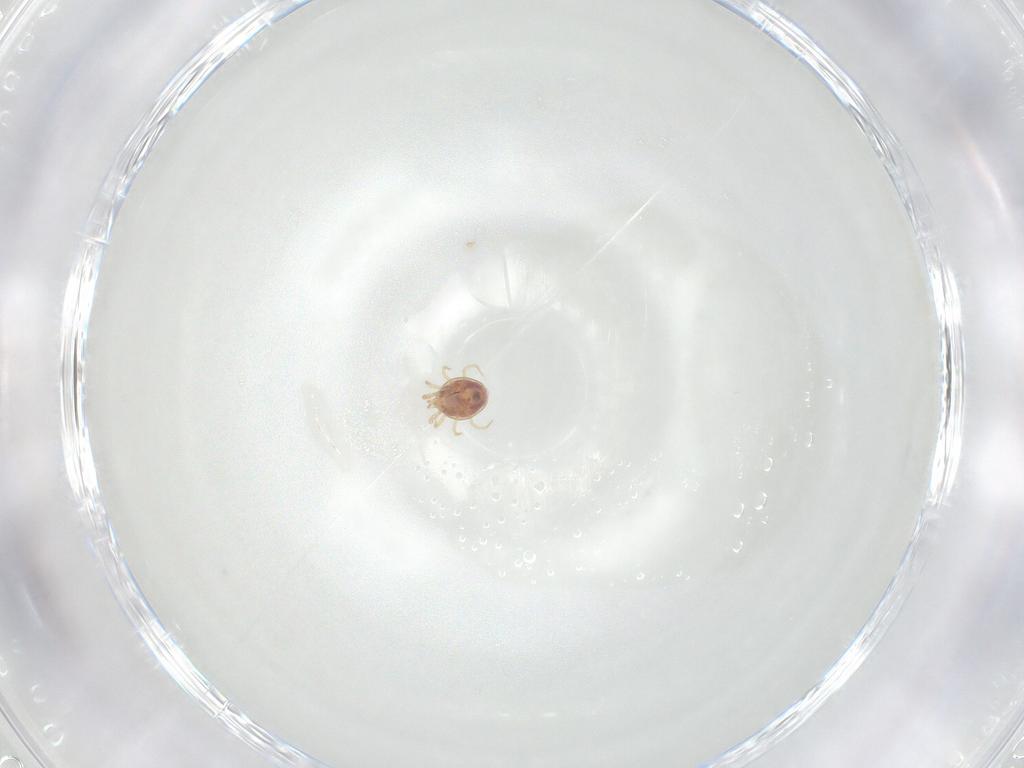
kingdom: Animalia
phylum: Arthropoda
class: Arachnida
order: Mesostigmata
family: Phytoseiidae
